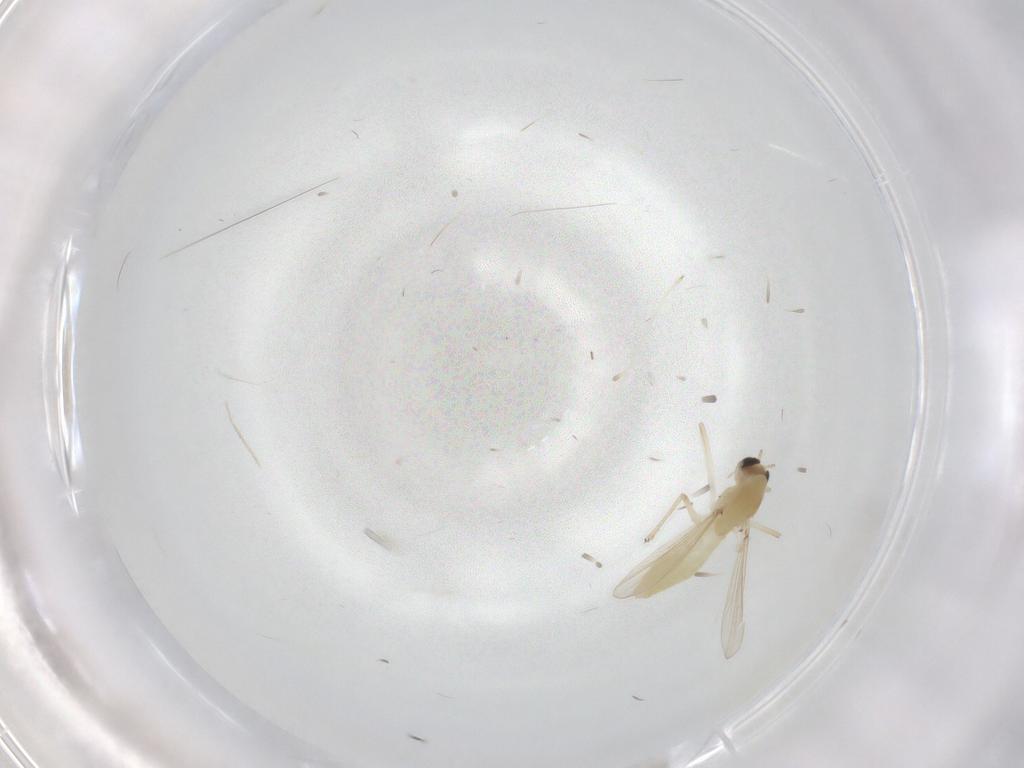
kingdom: Animalia
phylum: Arthropoda
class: Insecta
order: Diptera
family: Chironomidae
